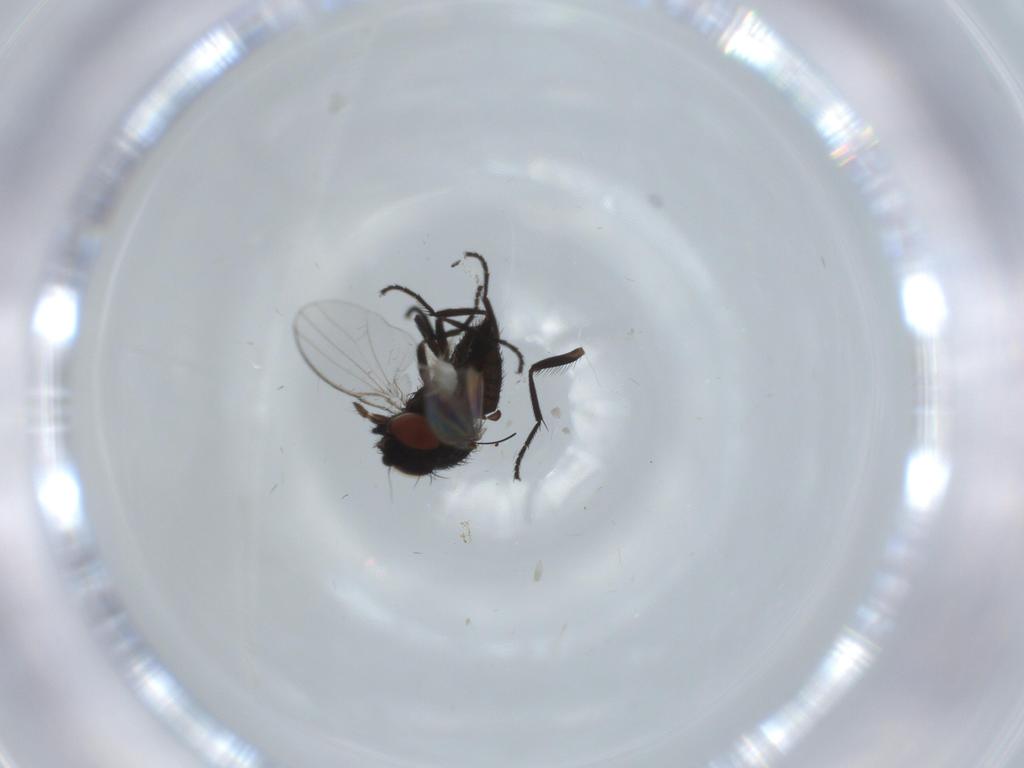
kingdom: Animalia
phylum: Arthropoda
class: Insecta
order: Diptera
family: Milichiidae
